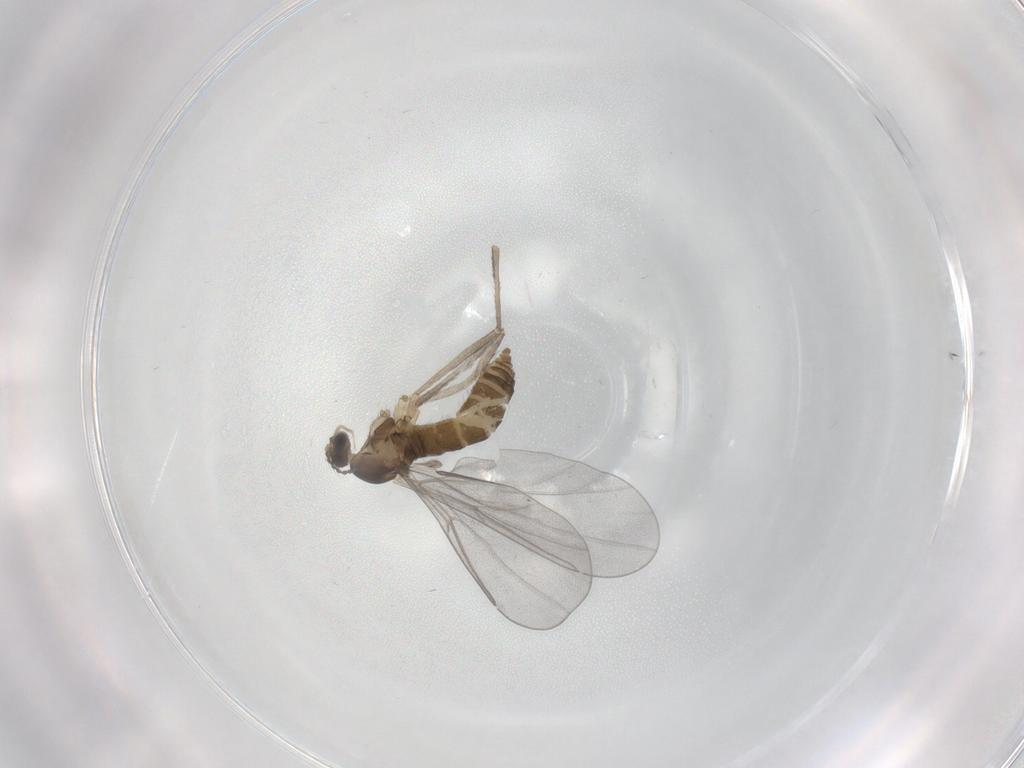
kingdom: Animalia
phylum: Arthropoda
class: Insecta
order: Diptera
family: Cecidomyiidae
